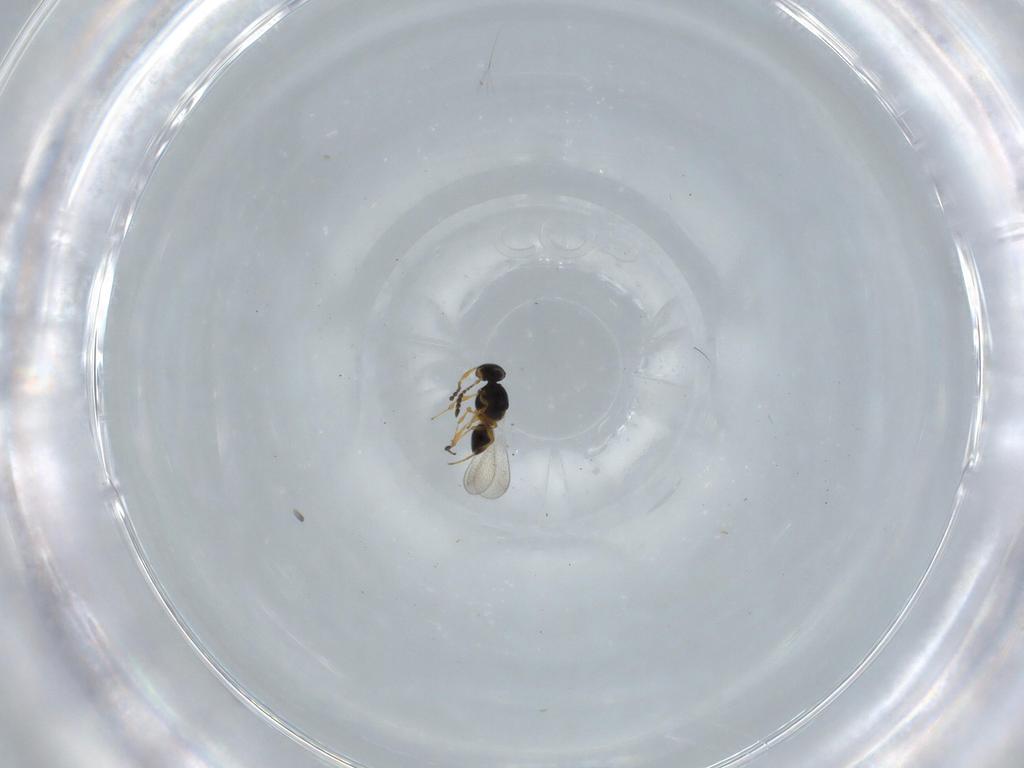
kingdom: Animalia
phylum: Arthropoda
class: Insecta
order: Hymenoptera
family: Platygastridae
